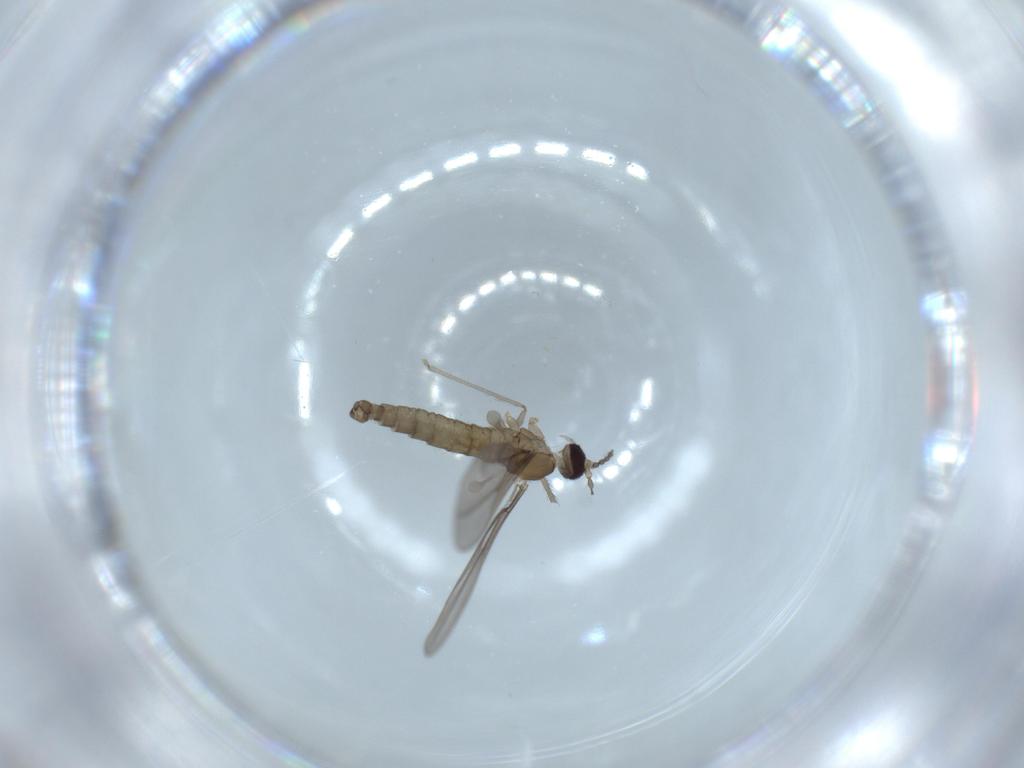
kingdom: Animalia
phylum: Arthropoda
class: Insecta
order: Diptera
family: Cecidomyiidae
